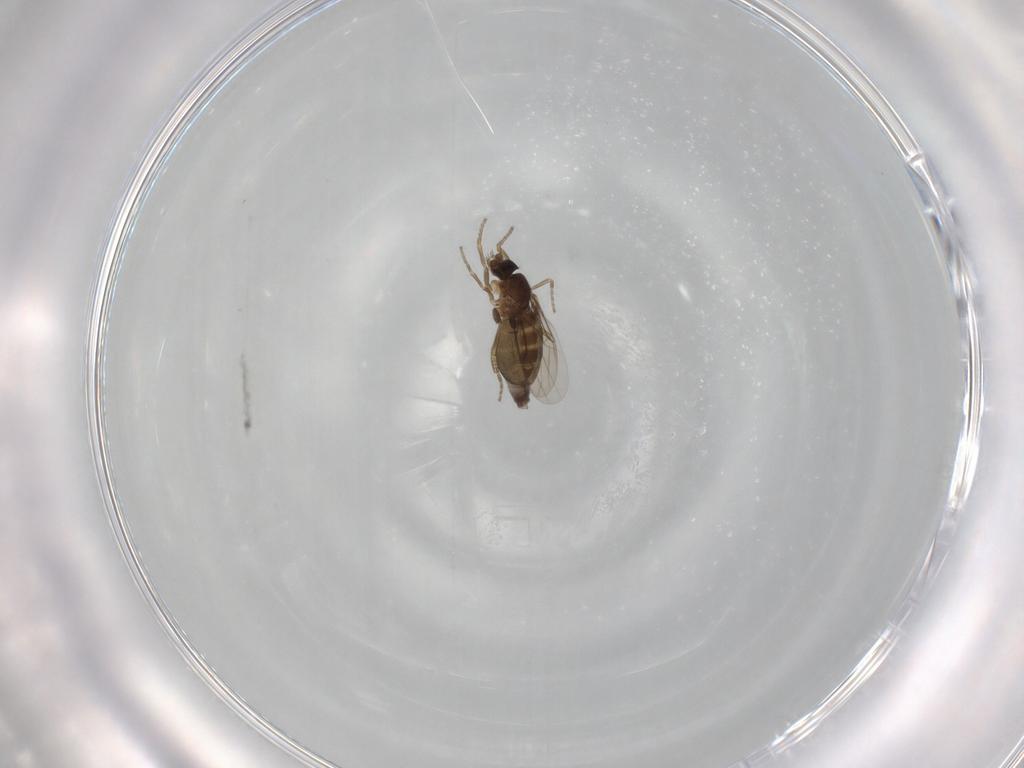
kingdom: Animalia
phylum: Arthropoda
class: Insecta
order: Diptera
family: Phoridae
